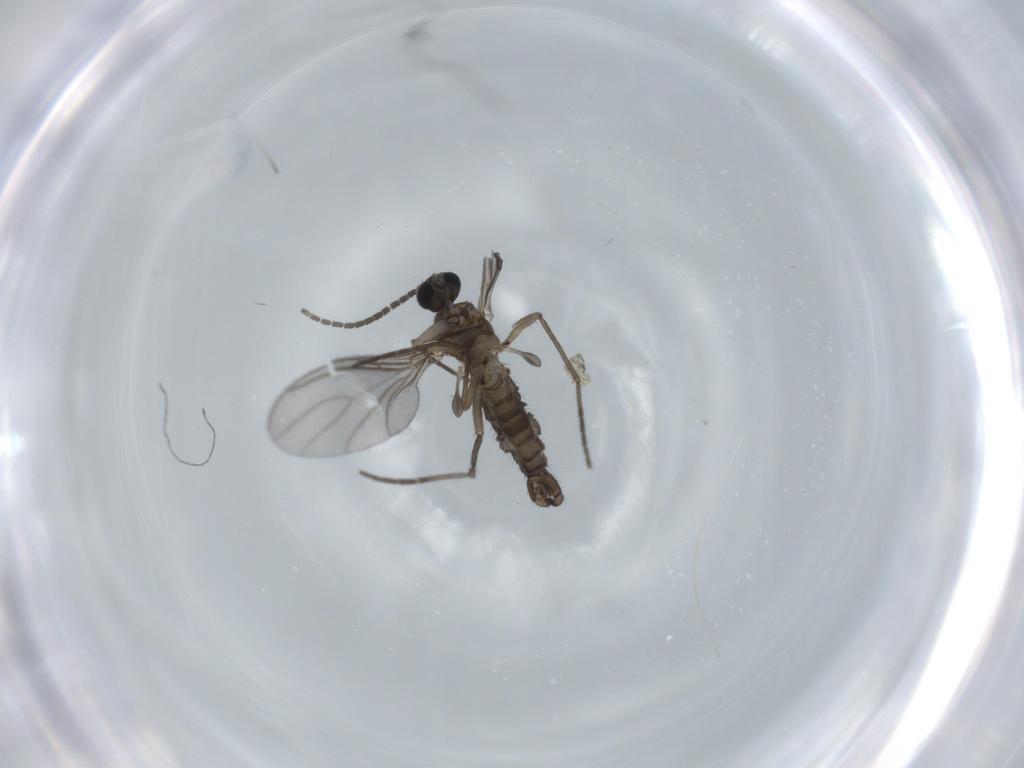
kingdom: Animalia
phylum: Arthropoda
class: Insecta
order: Diptera
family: Sciaridae
